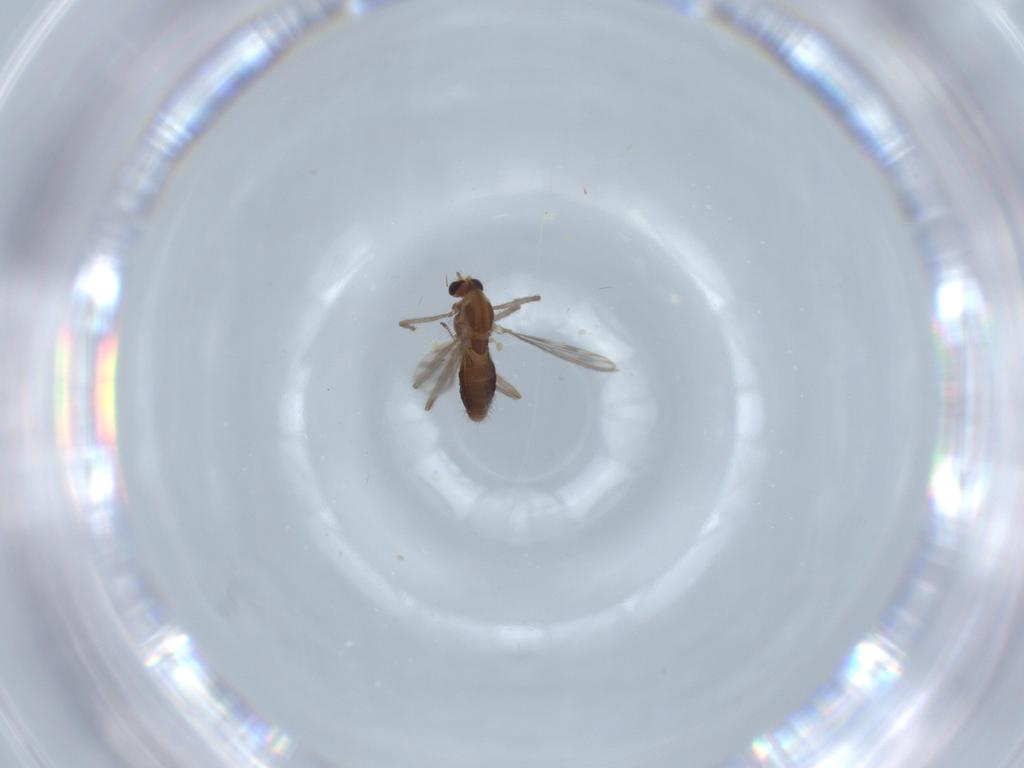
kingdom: Animalia
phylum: Arthropoda
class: Insecta
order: Diptera
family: Chironomidae
